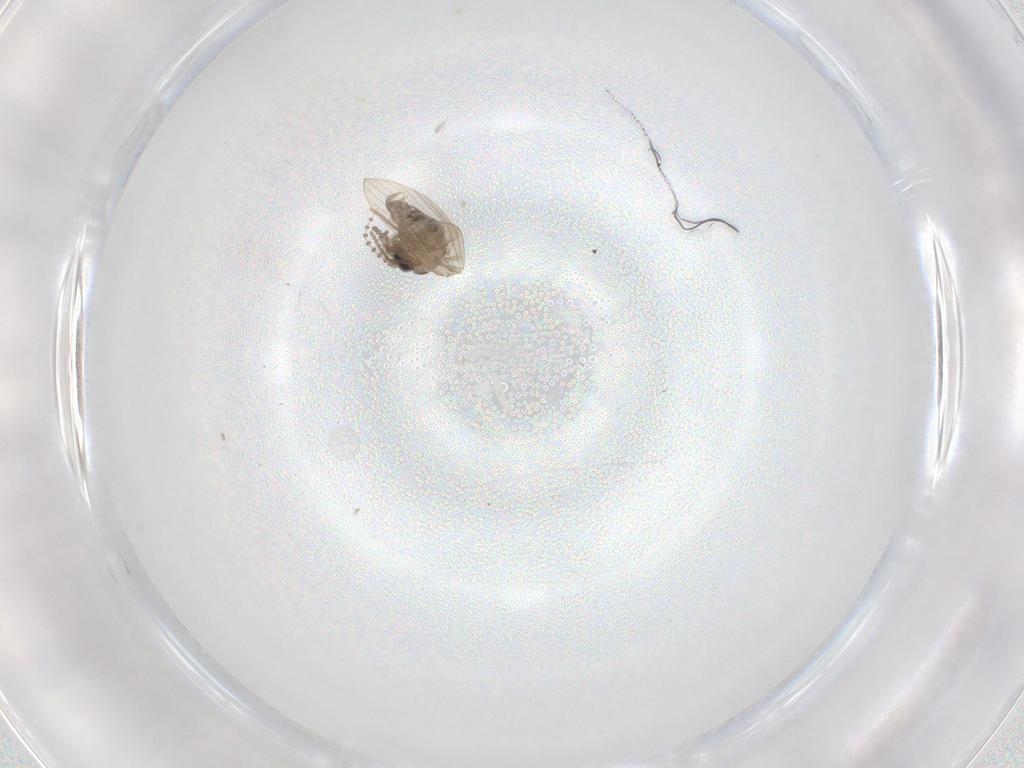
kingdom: Animalia
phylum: Arthropoda
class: Insecta
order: Diptera
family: Psychodidae
